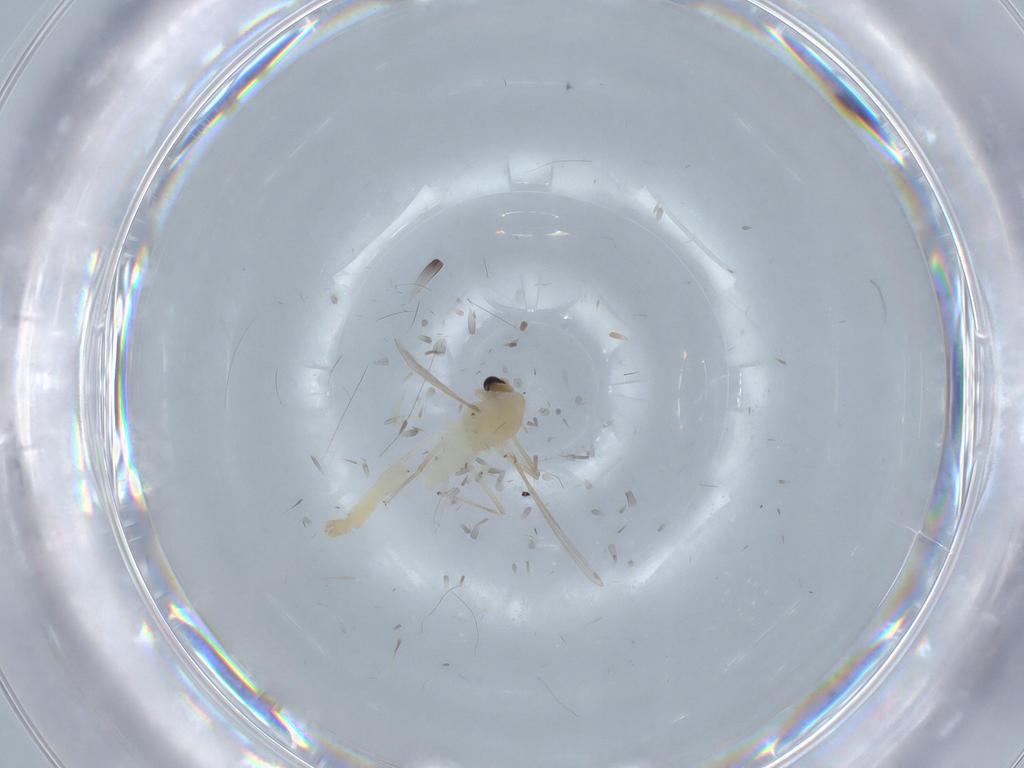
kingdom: Animalia
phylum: Arthropoda
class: Insecta
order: Diptera
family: Chironomidae
